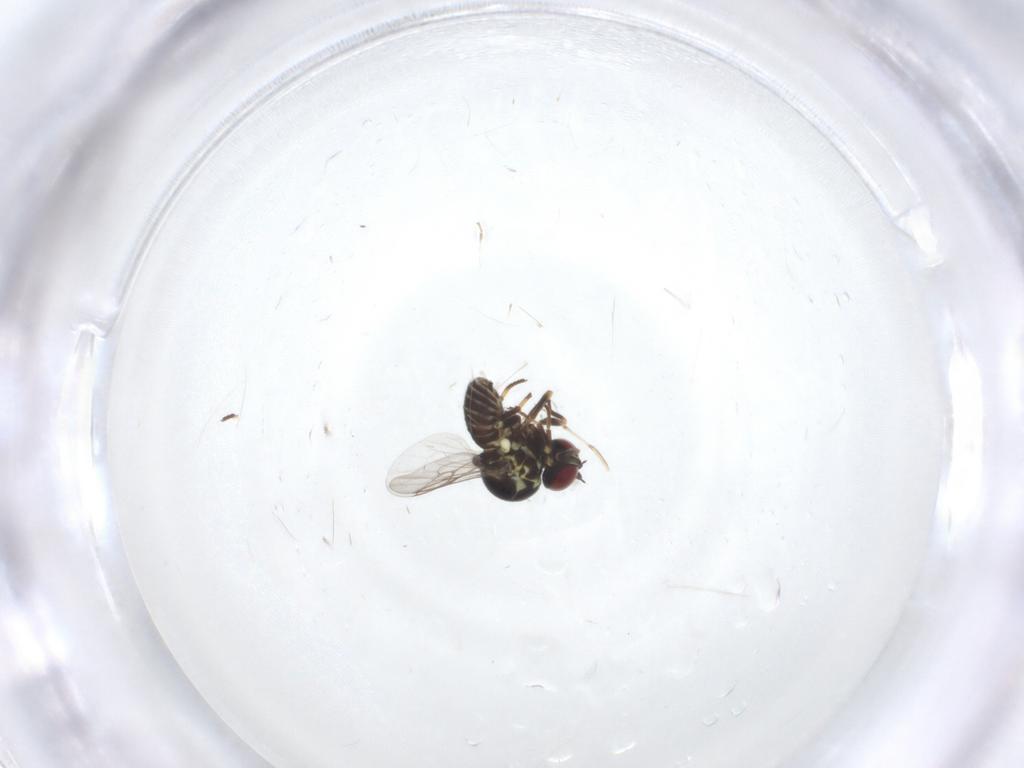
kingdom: Animalia
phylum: Arthropoda
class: Insecta
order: Diptera
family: Mythicomyiidae
